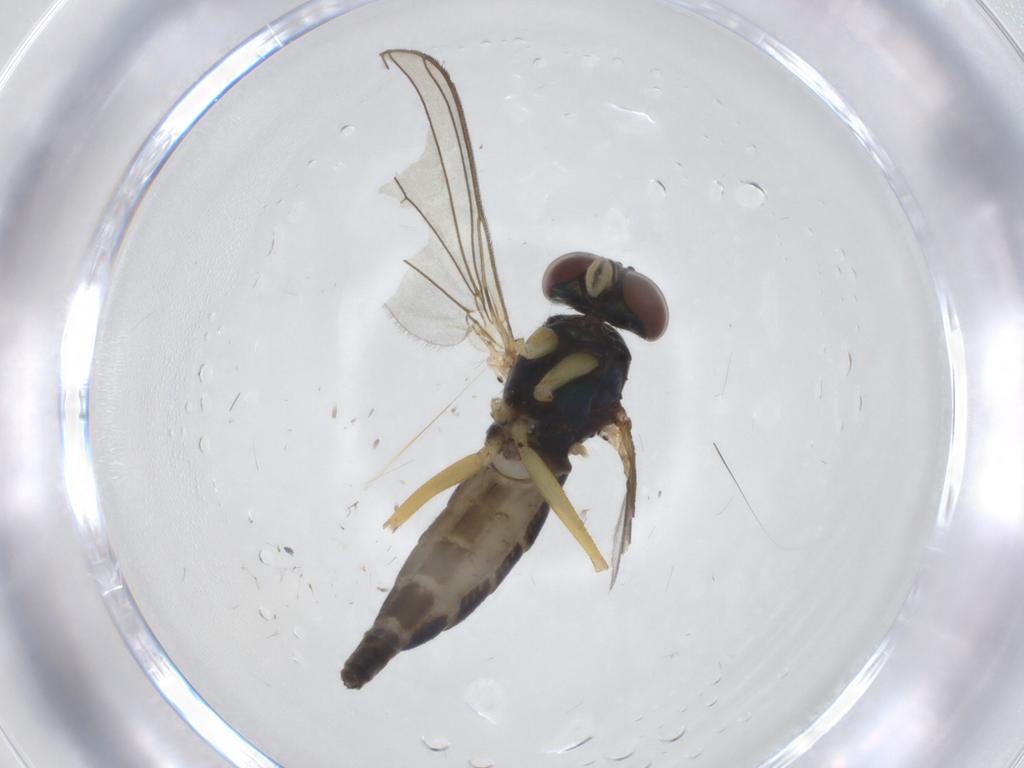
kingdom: Animalia
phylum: Arthropoda
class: Insecta
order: Diptera
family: Dolichopodidae
